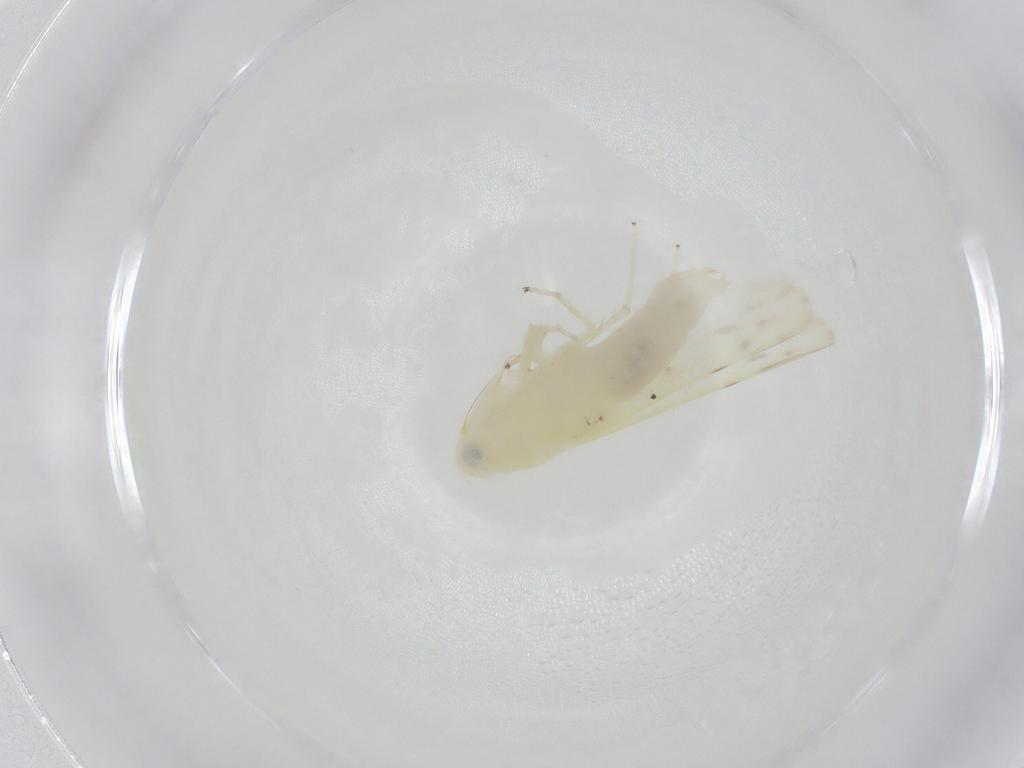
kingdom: Animalia
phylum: Arthropoda
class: Insecta
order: Hemiptera
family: Cicadellidae
